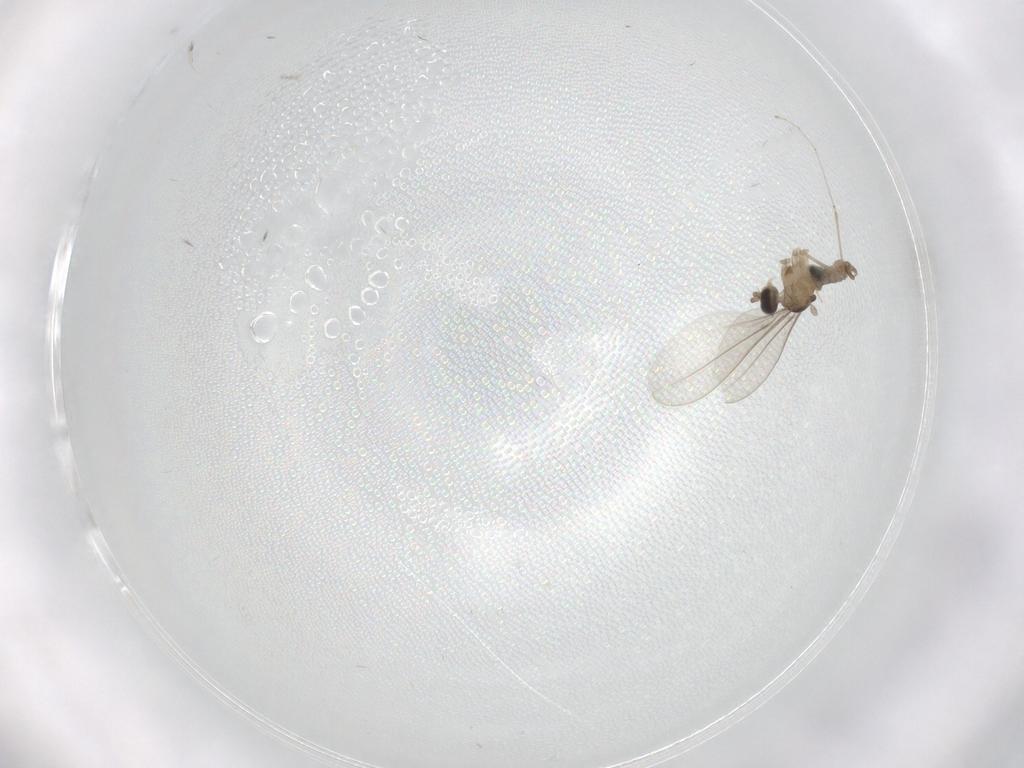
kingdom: Animalia
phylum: Arthropoda
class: Insecta
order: Diptera
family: Cecidomyiidae
